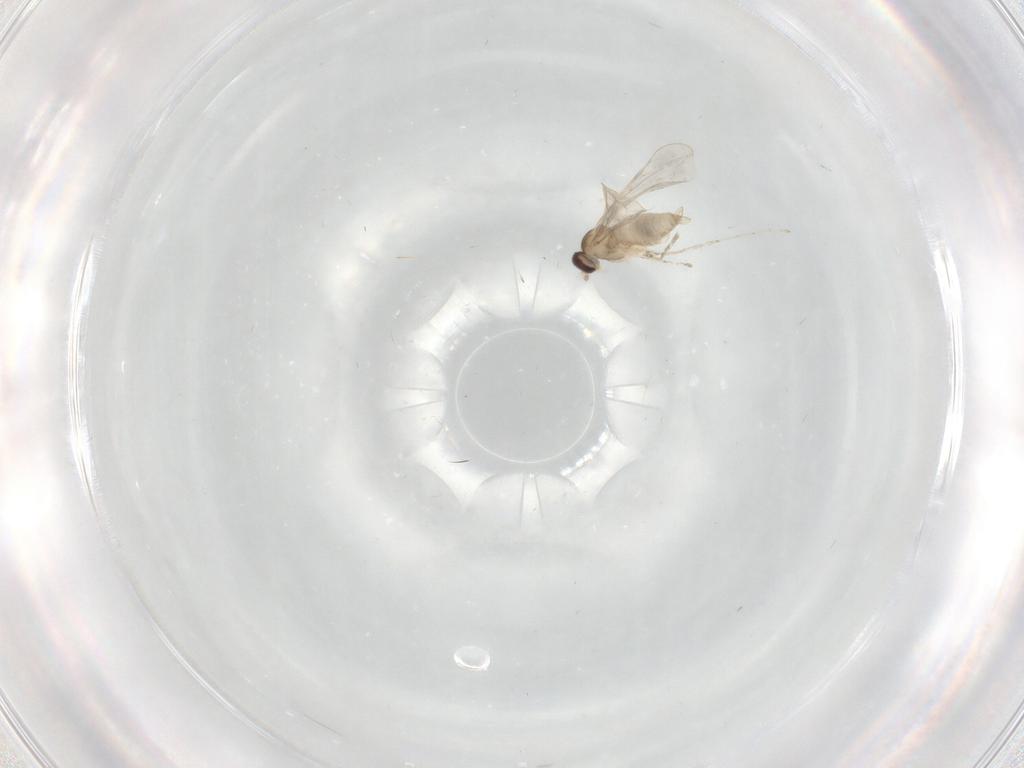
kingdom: Animalia
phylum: Arthropoda
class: Insecta
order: Diptera
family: Cecidomyiidae
